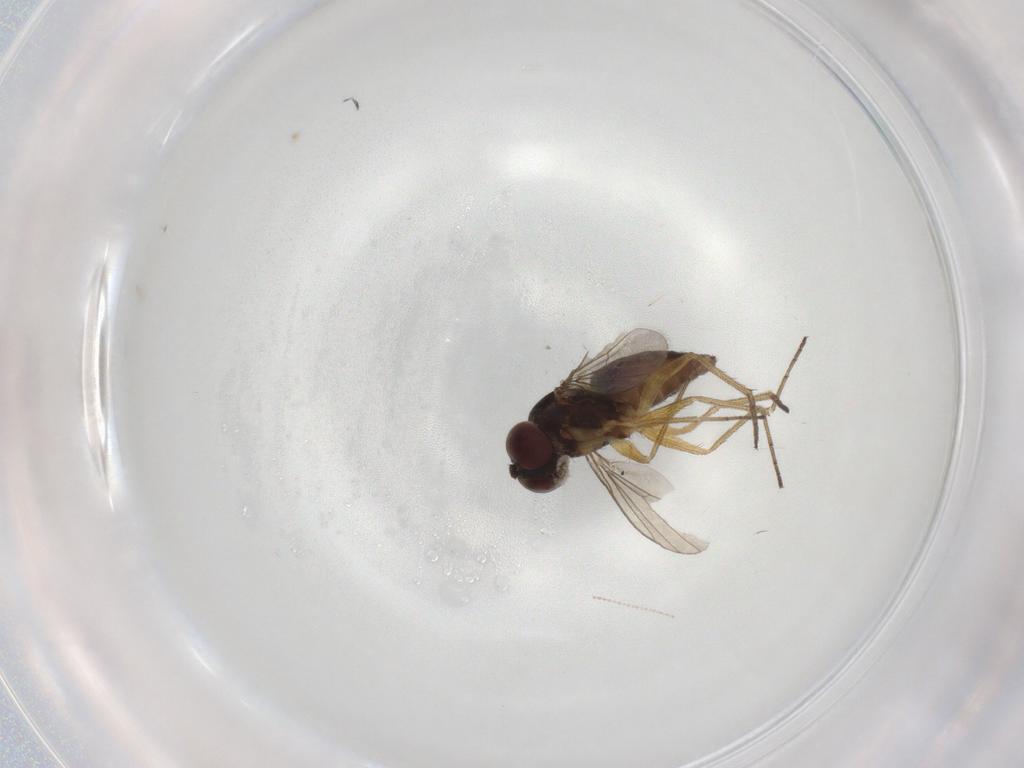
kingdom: Animalia
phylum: Arthropoda
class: Insecta
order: Diptera
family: Dolichopodidae
